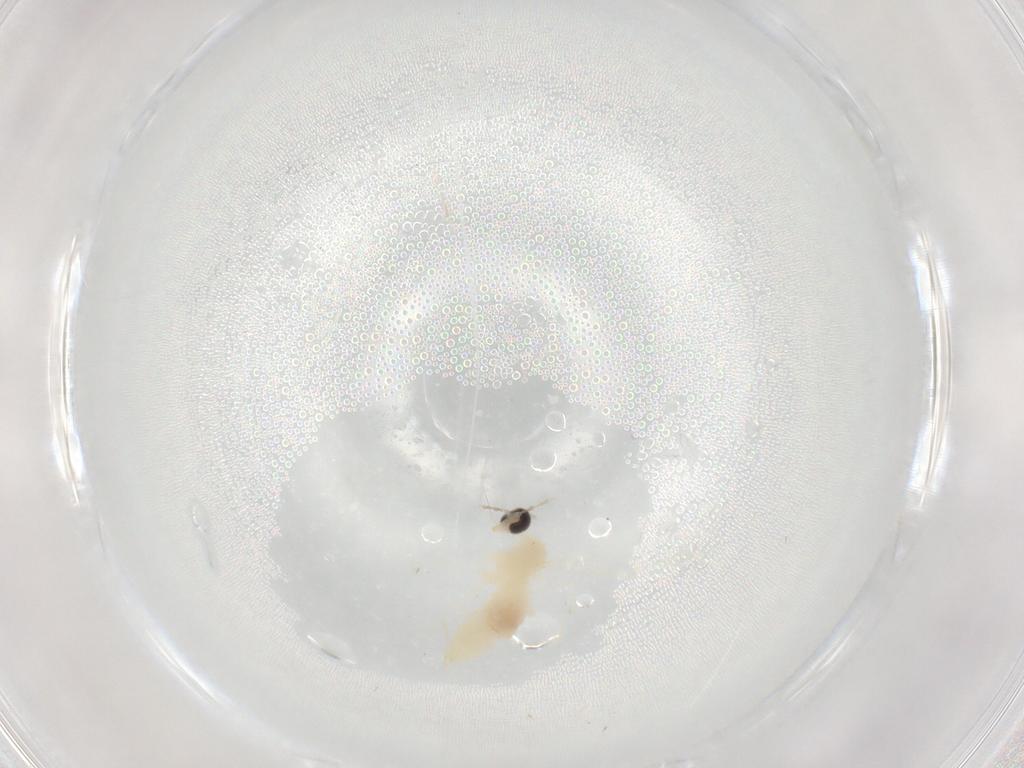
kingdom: Animalia
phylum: Arthropoda
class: Insecta
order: Diptera
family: Cecidomyiidae
